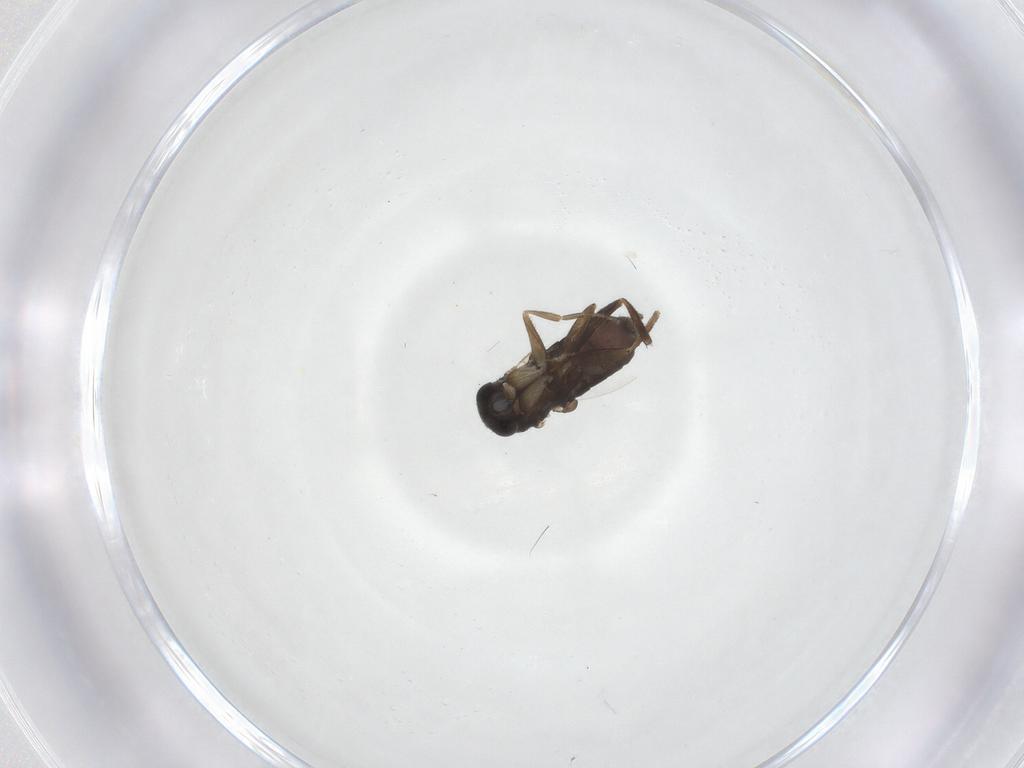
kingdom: Animalia
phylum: Arthropoda
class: Insecta
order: Diptera
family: Phoridae
